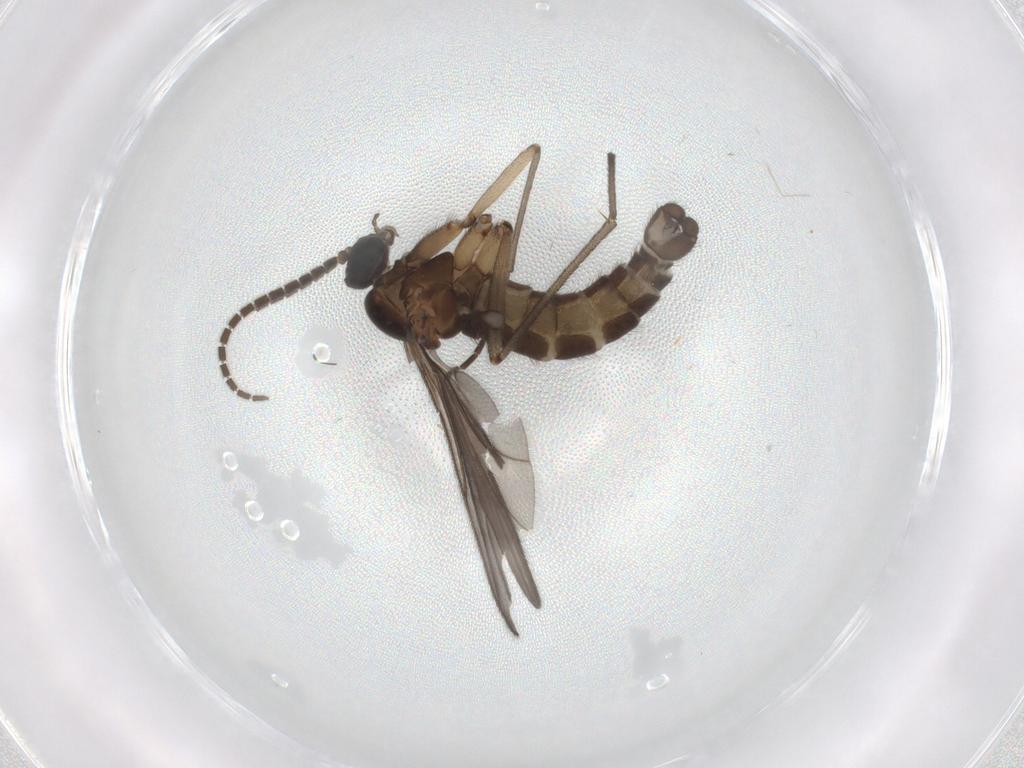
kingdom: Animalia
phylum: Arthropoda
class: Insecta
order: Diptera
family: Sciaridae
